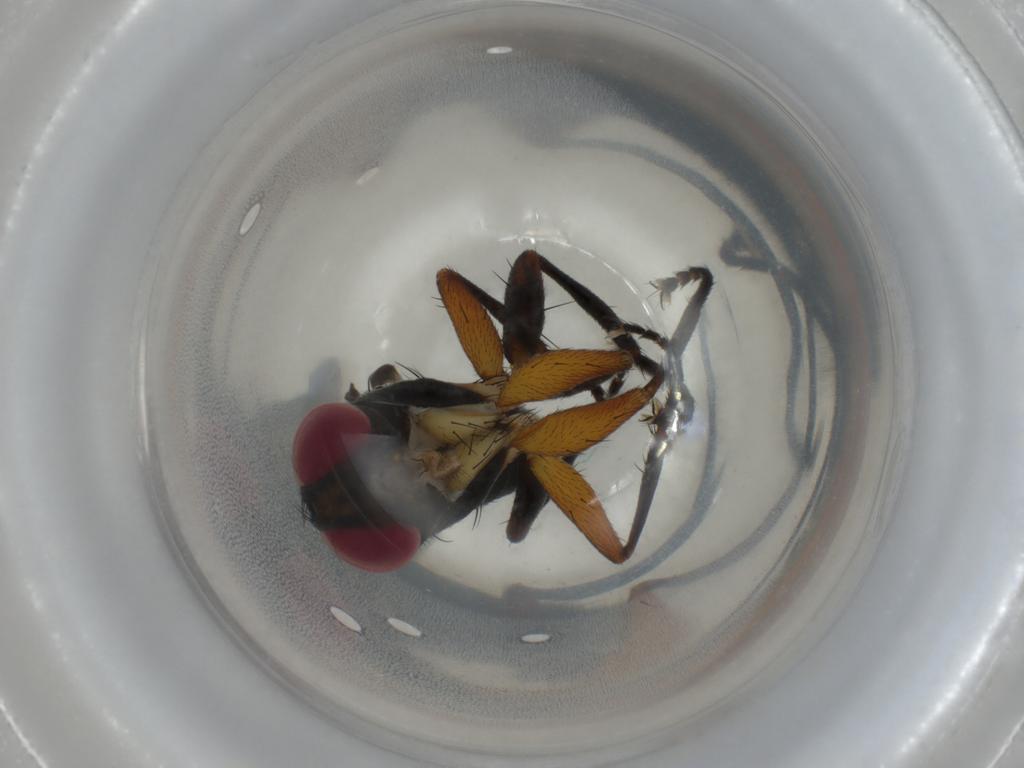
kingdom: Animalia
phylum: Arthropoda
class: Insecta
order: Diptera
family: Calliphoridae
